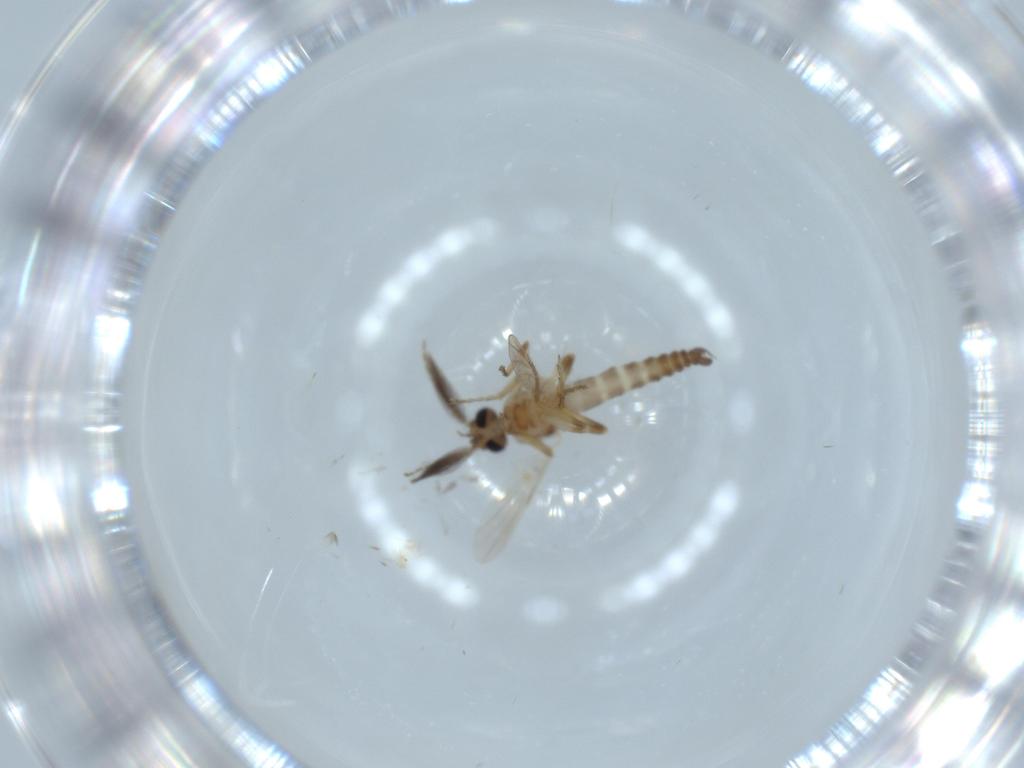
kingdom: Animalia
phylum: Arthropoda
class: Insecta
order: Diptera
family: Ceratopogonidae
